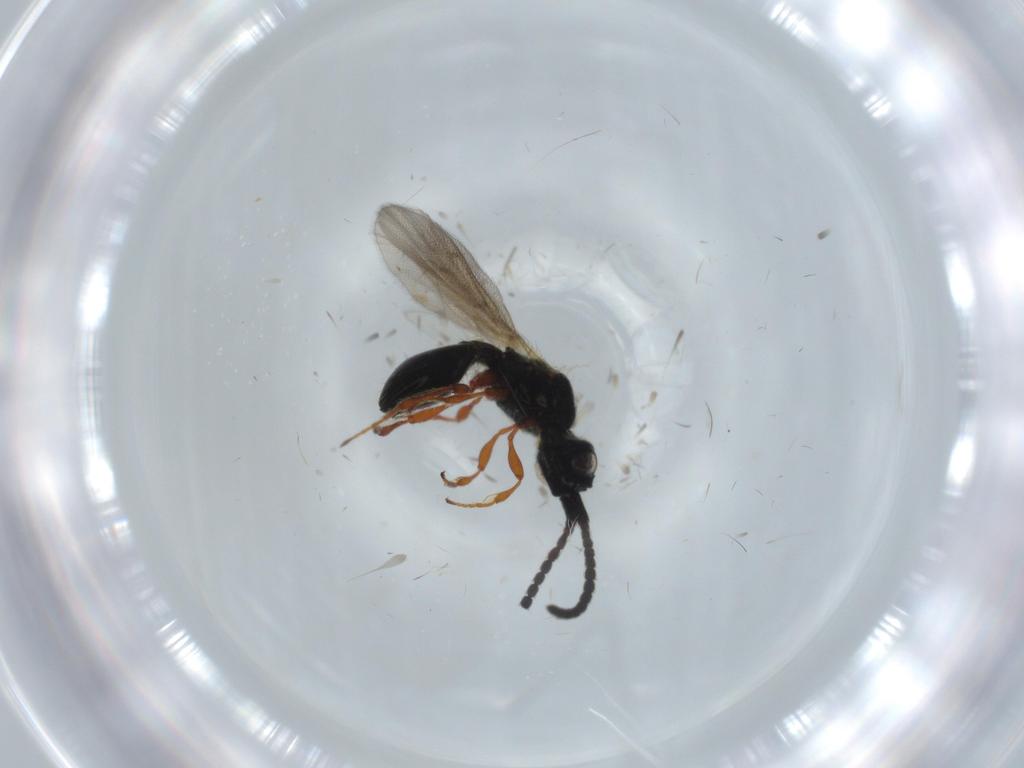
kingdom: Animalia
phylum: Arthropoda
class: Insecta
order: Hymenoptera
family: Diapriidae
